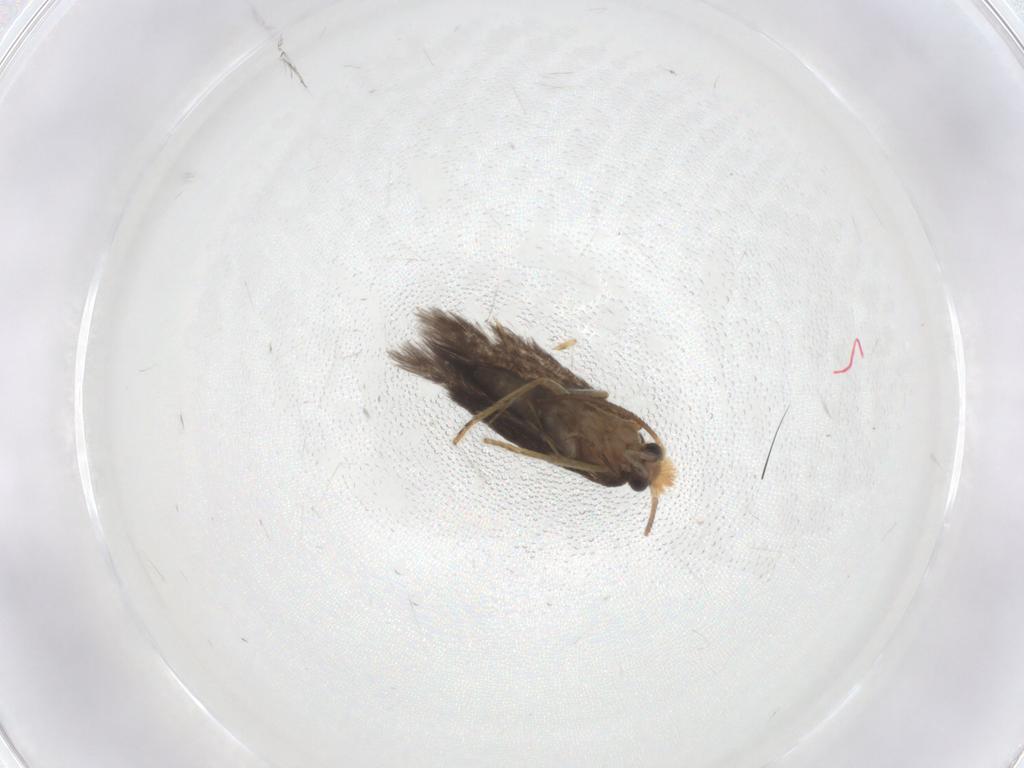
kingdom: Animalia
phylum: Arthropoda
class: Insecta
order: Lepidoptera
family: Nepticulidae
